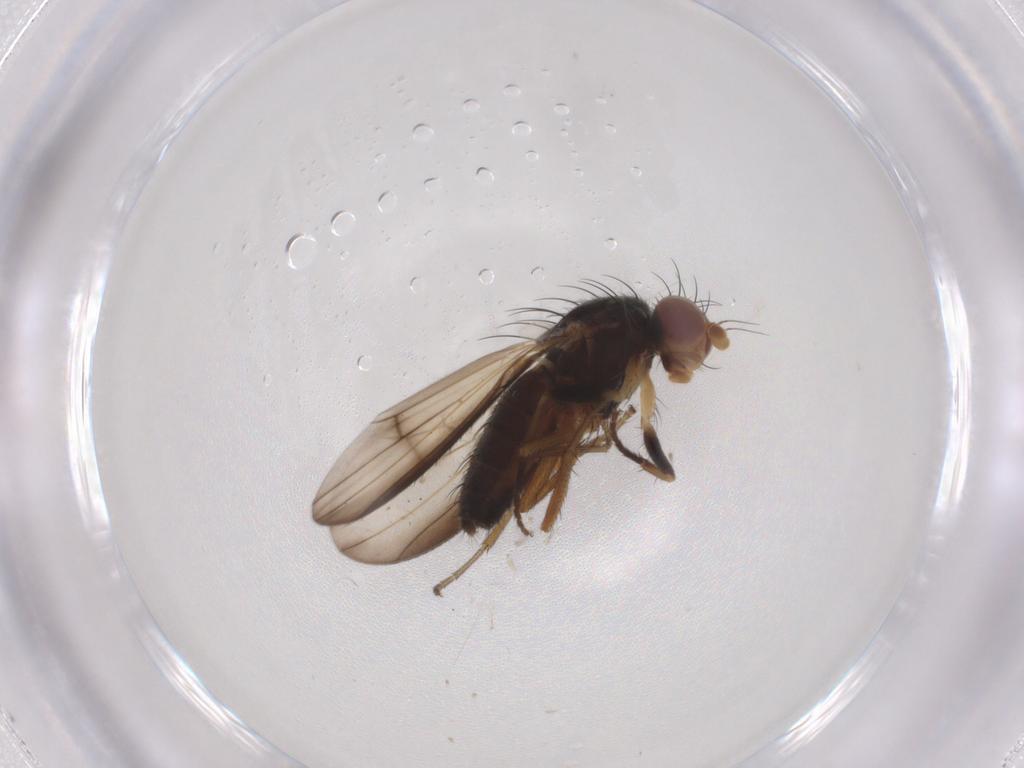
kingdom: Animalia
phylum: Arthropoda
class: Insecta
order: Diptera
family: Heleomyzidae
